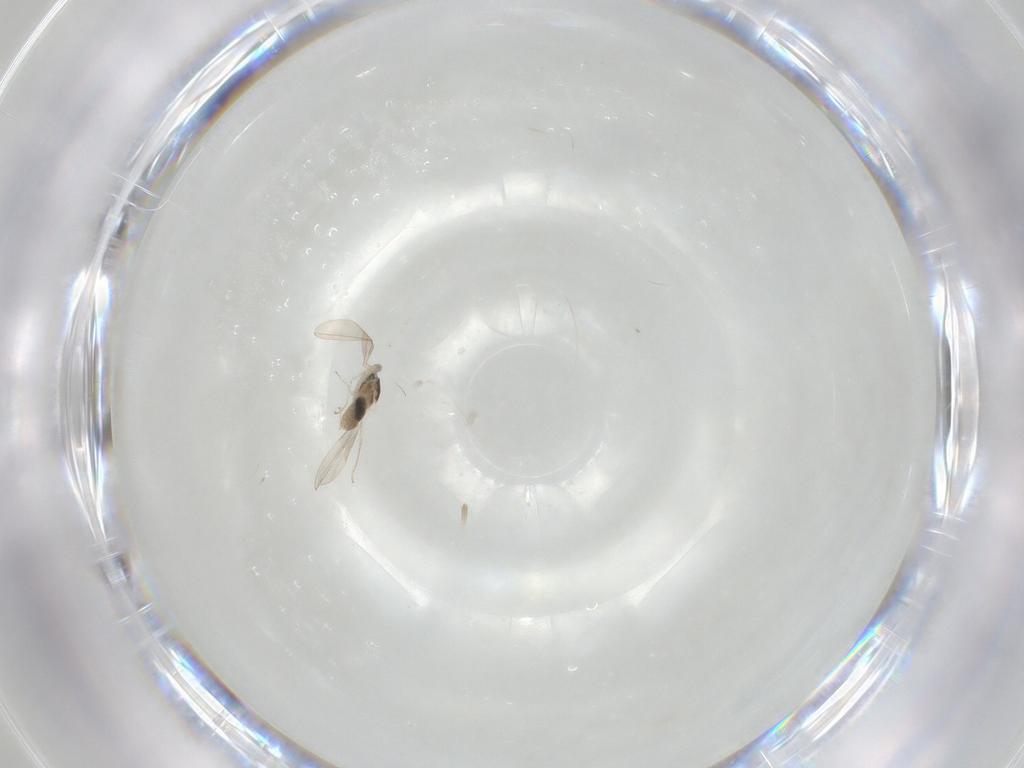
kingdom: Animalia
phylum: Arthropoda
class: Insecta
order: Diptera
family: Cecidomyiidae
